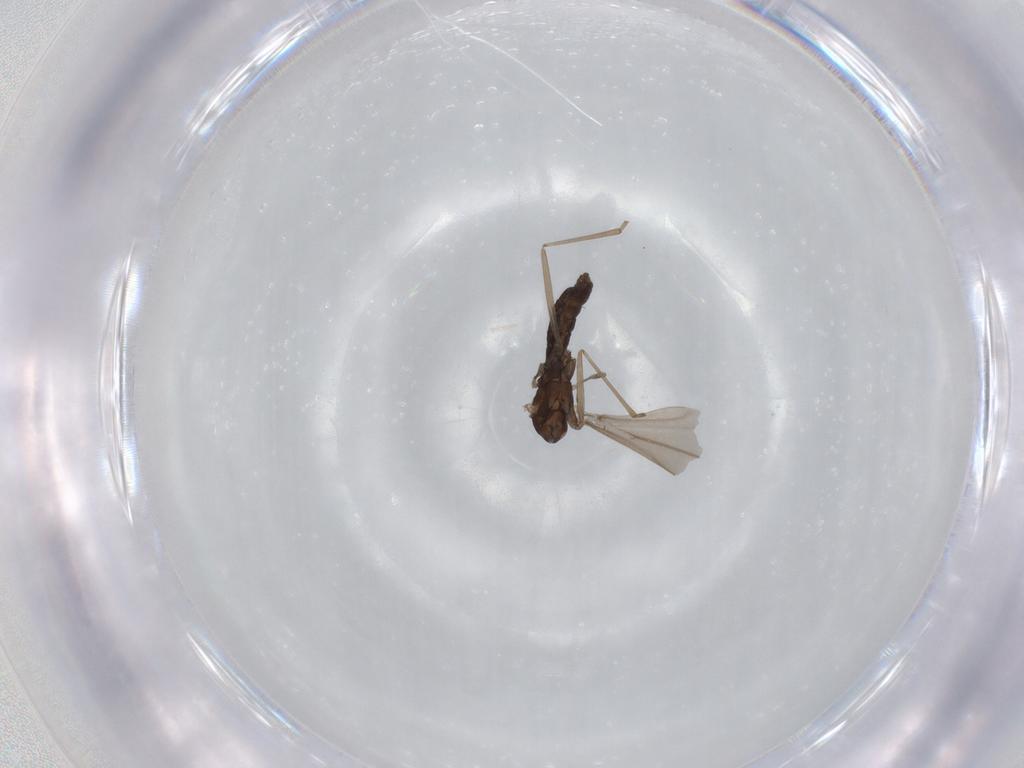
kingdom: Animalia
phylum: Arthropoda
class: Insecta
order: Diptera
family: Cecidomyiidae
